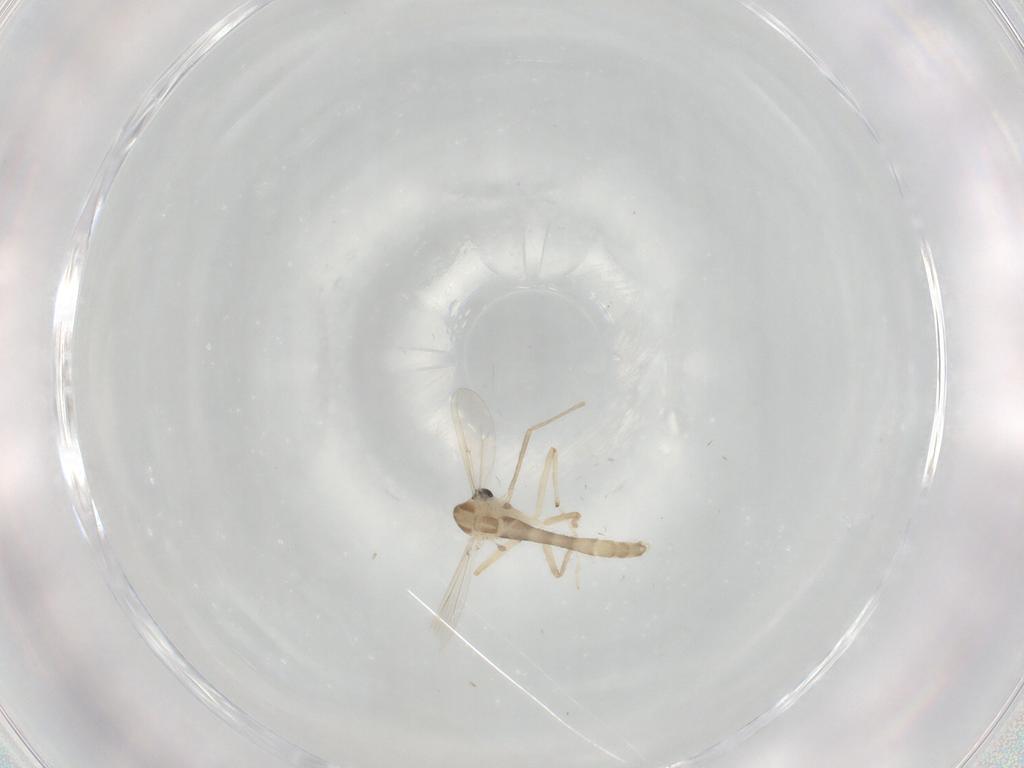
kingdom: Animalia
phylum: Arthropoda
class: Insecta
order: Diptera
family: Chironomidae
